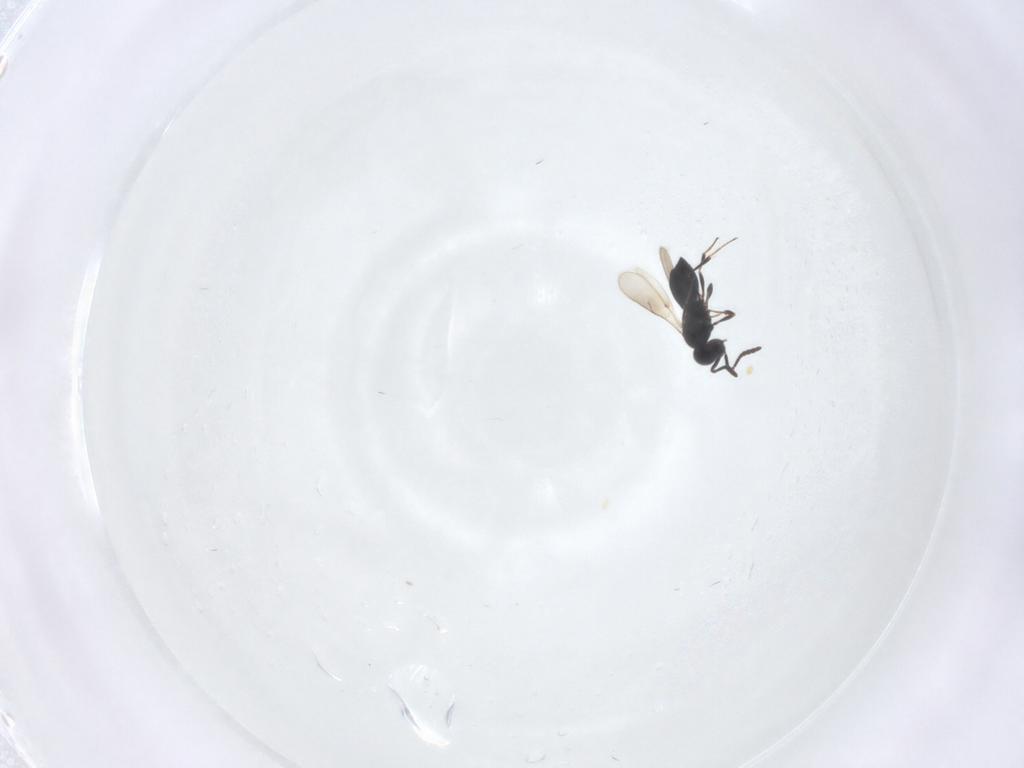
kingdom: Animalia
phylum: Arthropoda
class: Insecta
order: Hymenoptera
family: Scelionidae
